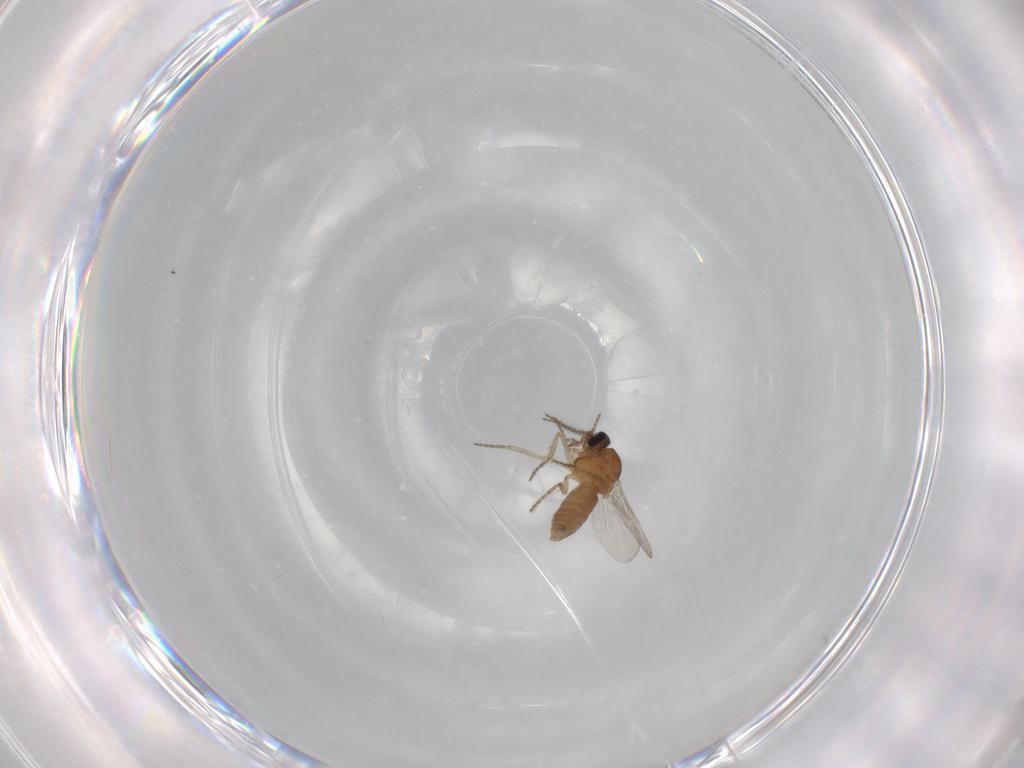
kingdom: Animalia
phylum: Arthropoda
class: Insecta
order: Diptera
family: Ceratopogonidae
